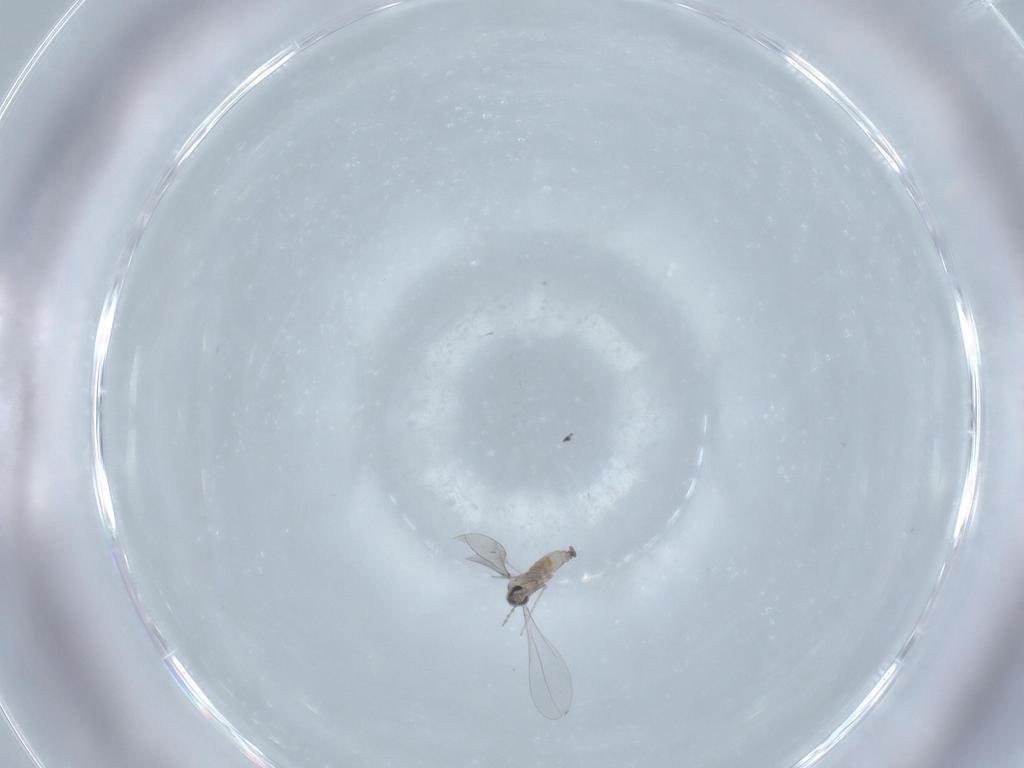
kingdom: Animalia
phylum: Arthropoda
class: Insecta
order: Diptera
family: Cecidomyiidae
